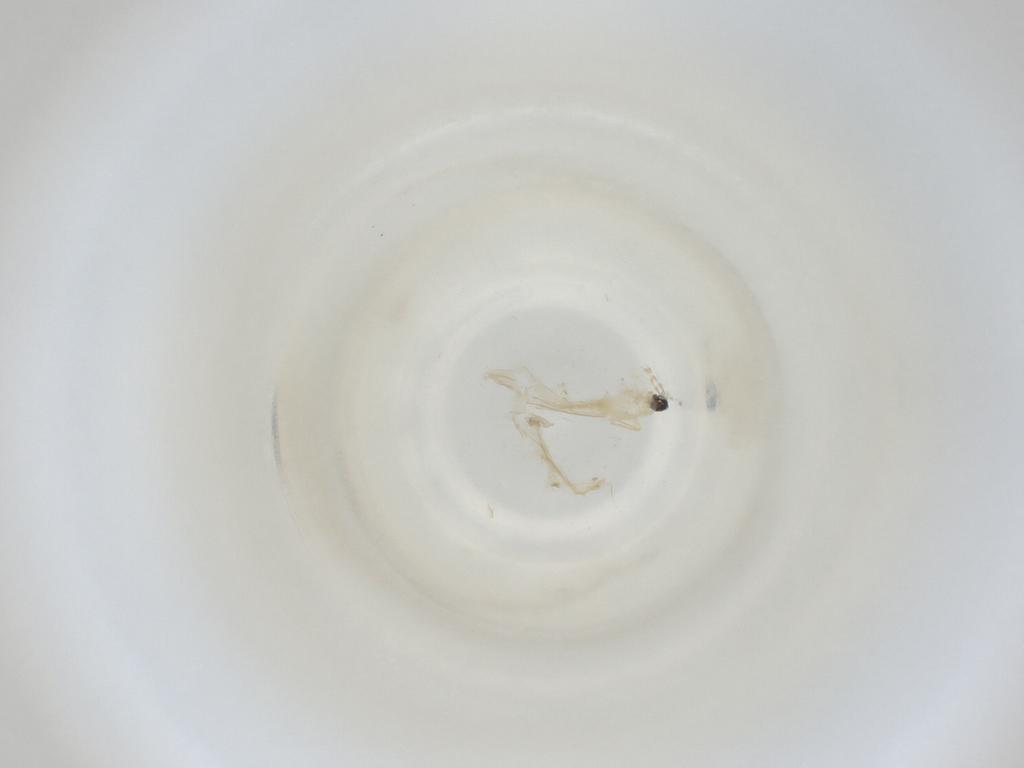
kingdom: Animalia
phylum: Arthropoda
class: Insecta
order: Diptera
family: Cecidomyiidae
